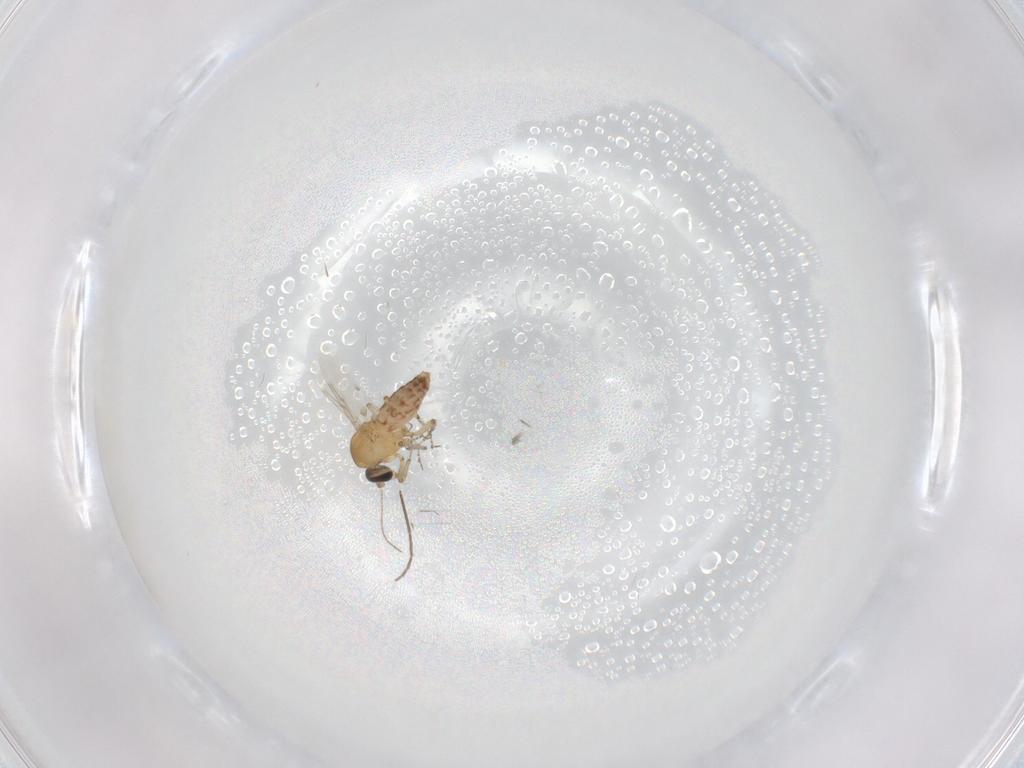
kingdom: Animalia
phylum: Arthropoda
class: Insecta
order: Diptera
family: Ceratopogonidae
